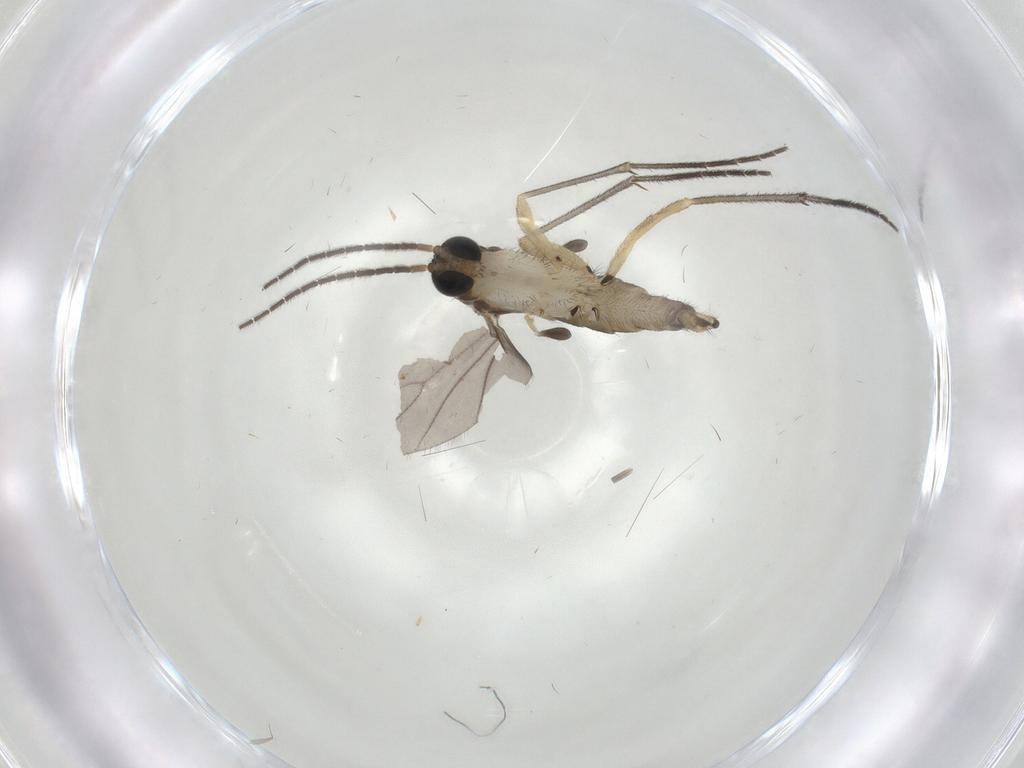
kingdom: Animalia
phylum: Arthropoda
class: Insecta
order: Diptera
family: Sciaridae
